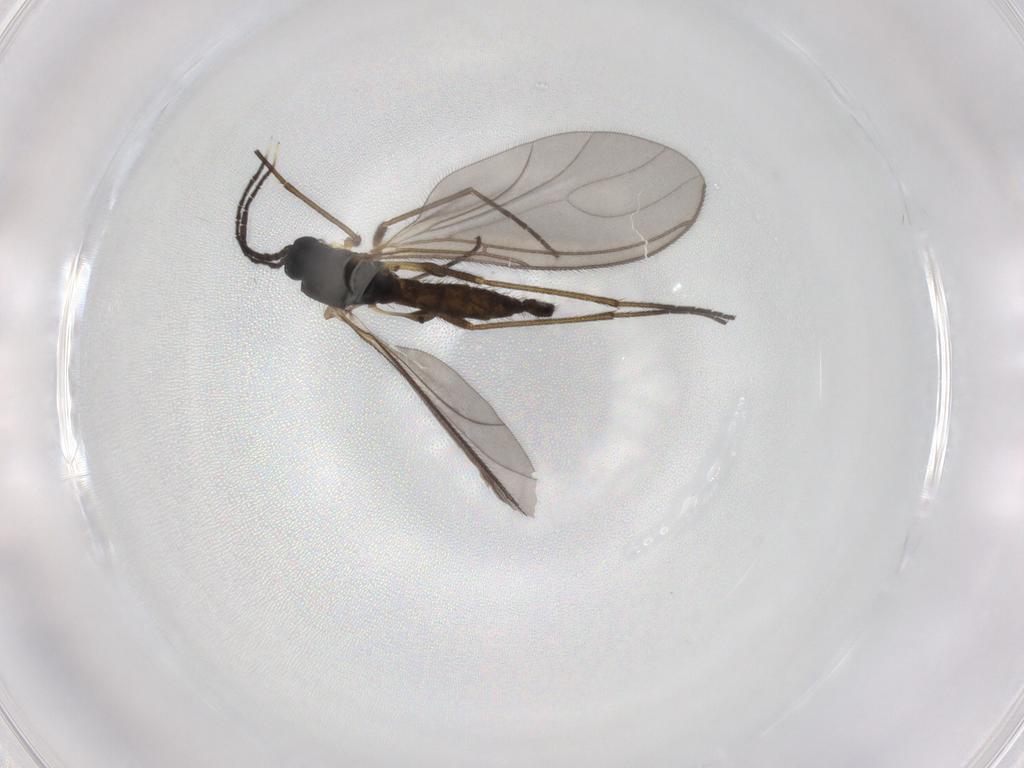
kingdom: Animalia
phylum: Arthropoda
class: Insecta
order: Diptera
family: Sciaridae
